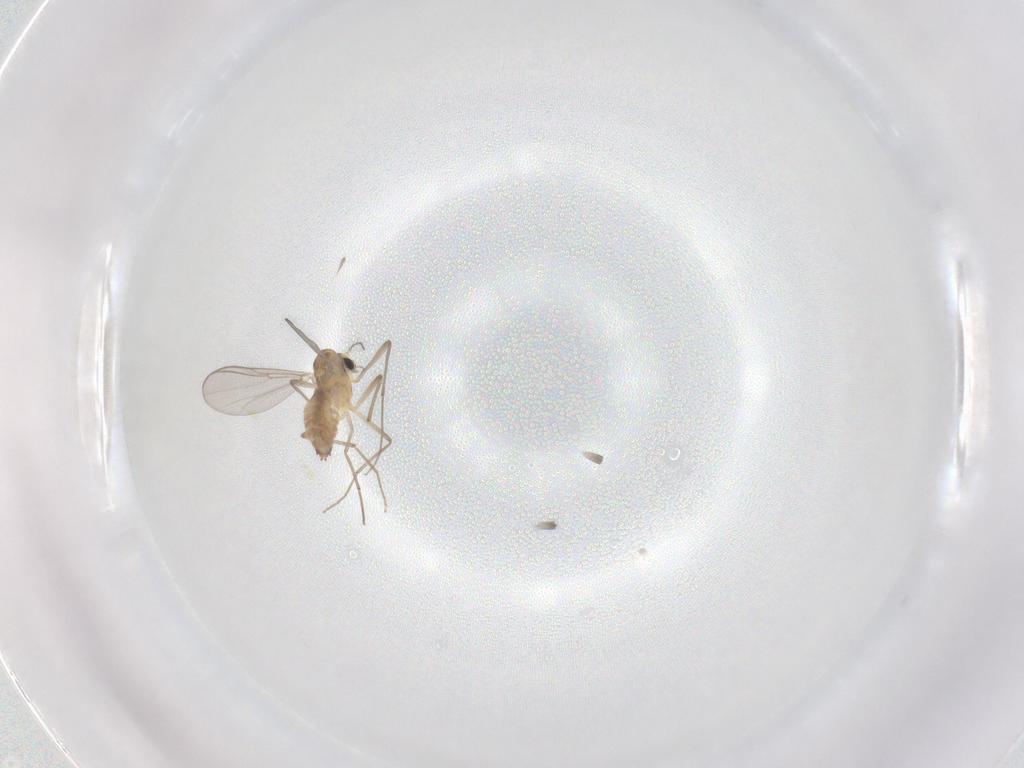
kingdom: Animalia
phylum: Arthropoda
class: Insecta
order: Diptera
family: Chironomidae
